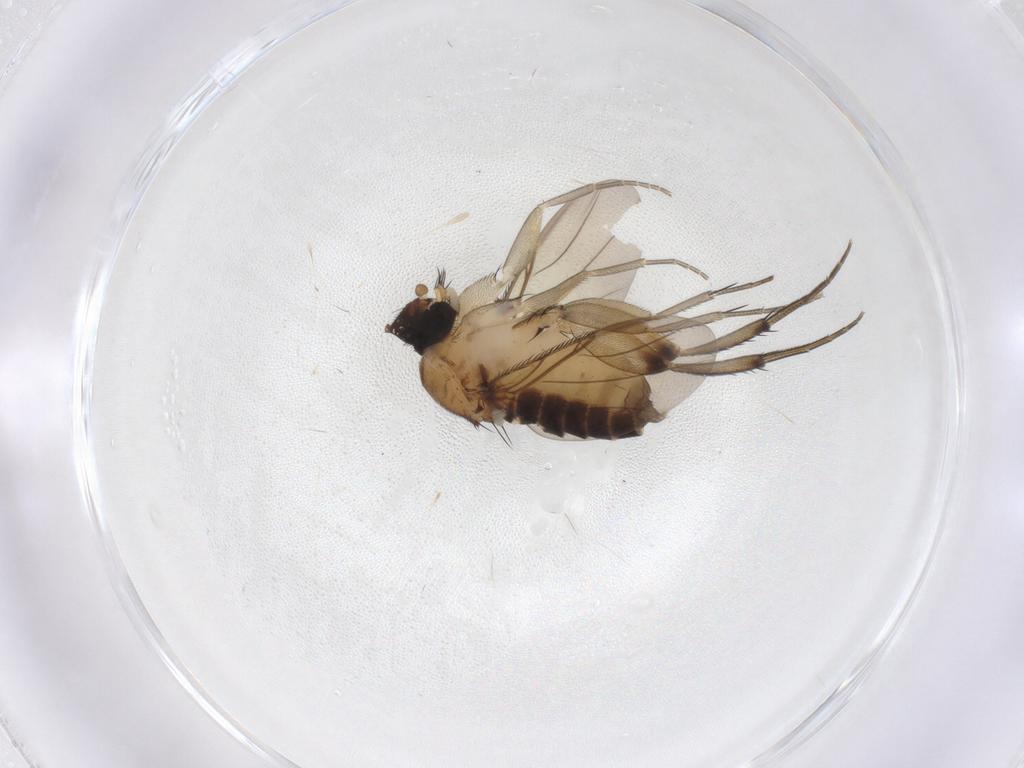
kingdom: Animalia
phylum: Arthropoda
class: Insecta
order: Diptera
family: Phoridae
